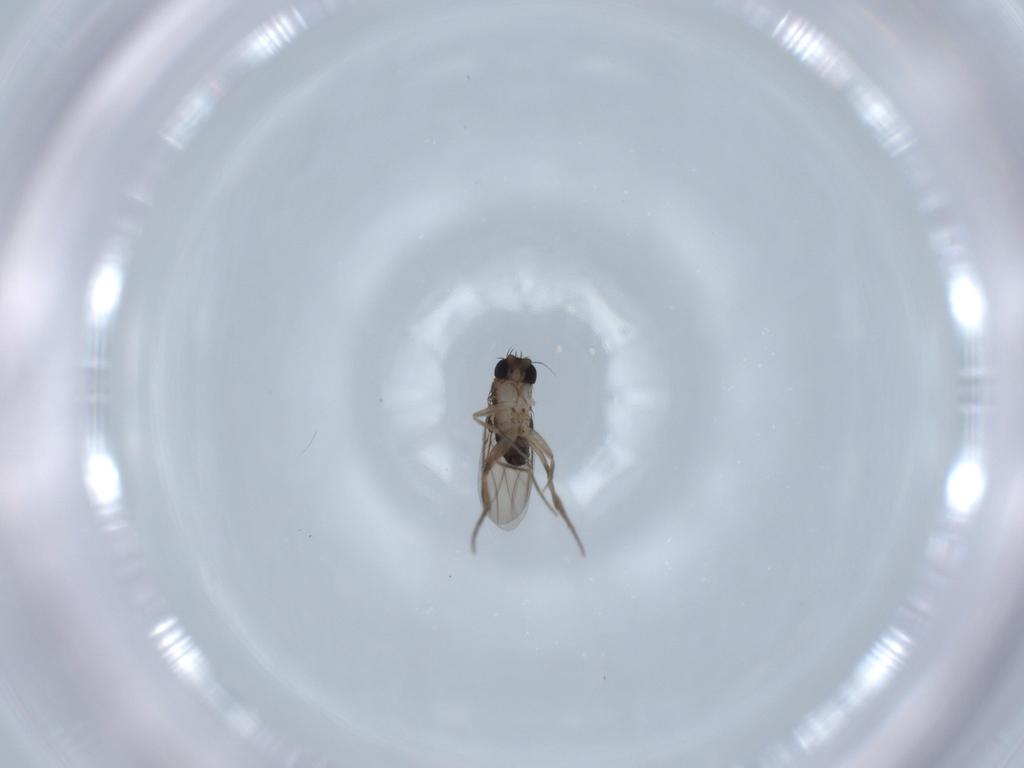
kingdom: Animalia
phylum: Arthropoda
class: Insecta
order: Diptera
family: Phoridae
